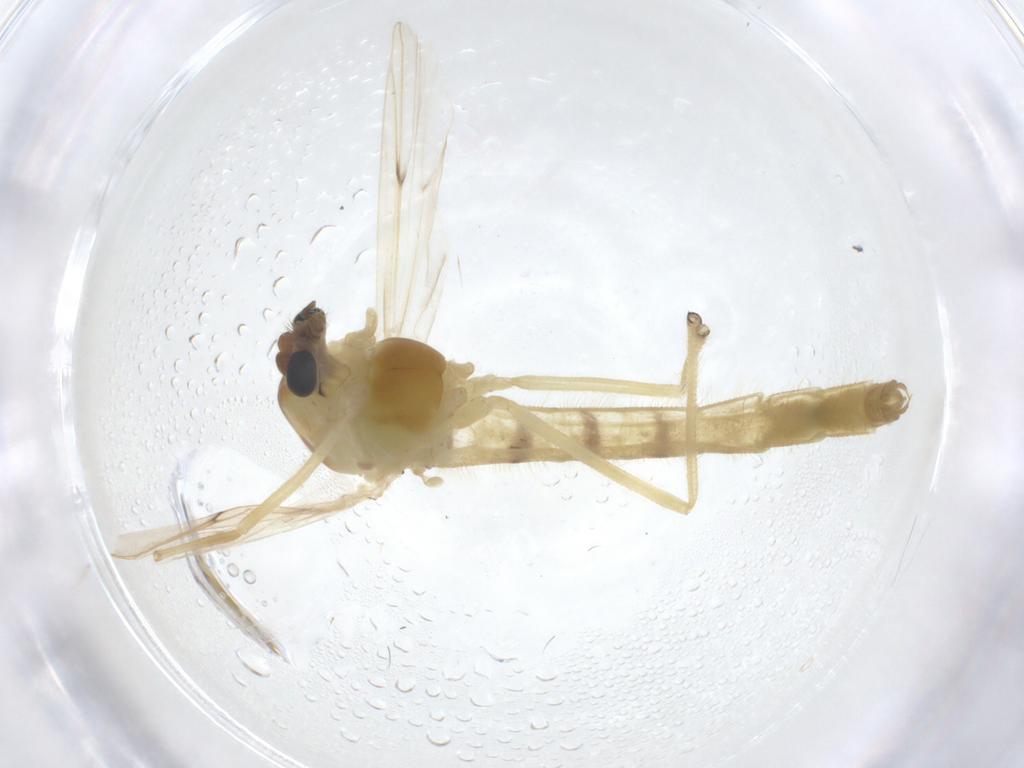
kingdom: Animalia
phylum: Arthropoda
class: Insecta
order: Diptera
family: Chironomidae
